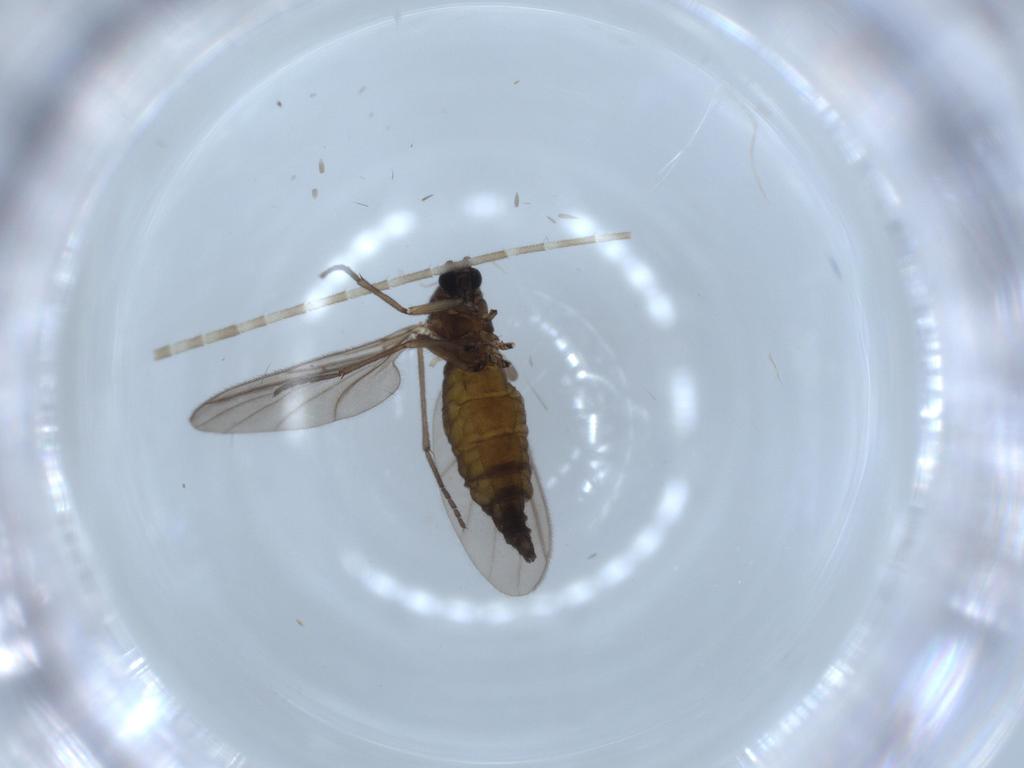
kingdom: Animalia
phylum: Arthropoda
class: Insecta
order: Diptera
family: Sciaridae
